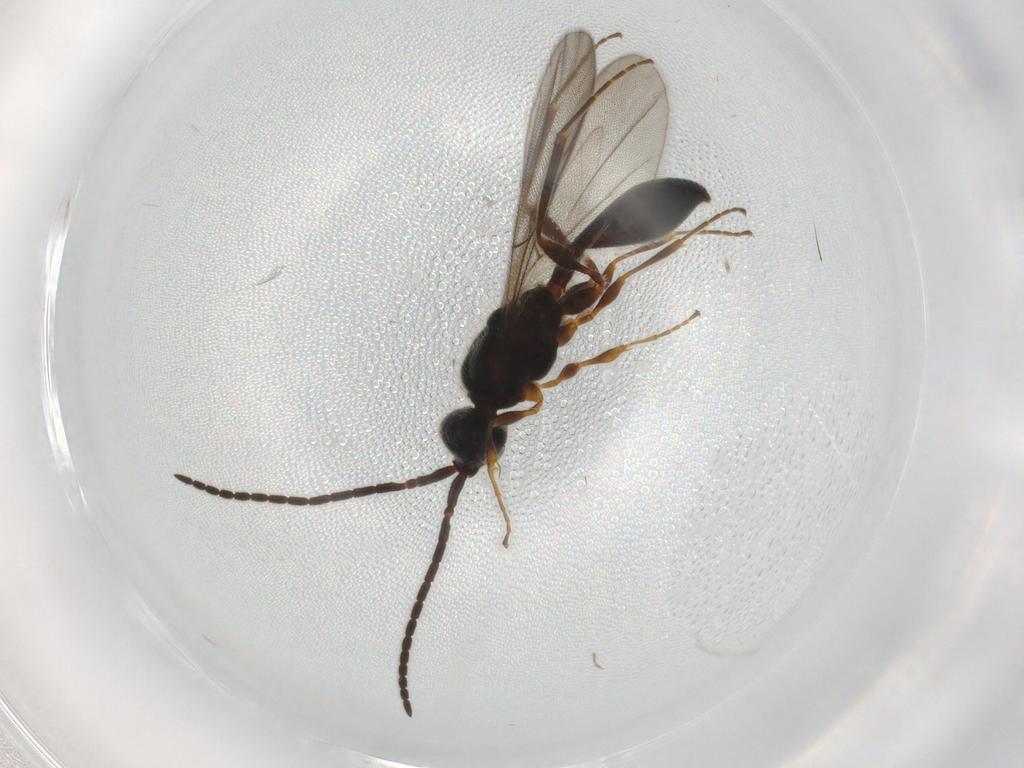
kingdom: Animalia
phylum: Arthropoda
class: Insecta
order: Hymenoptera
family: Diapriidae
